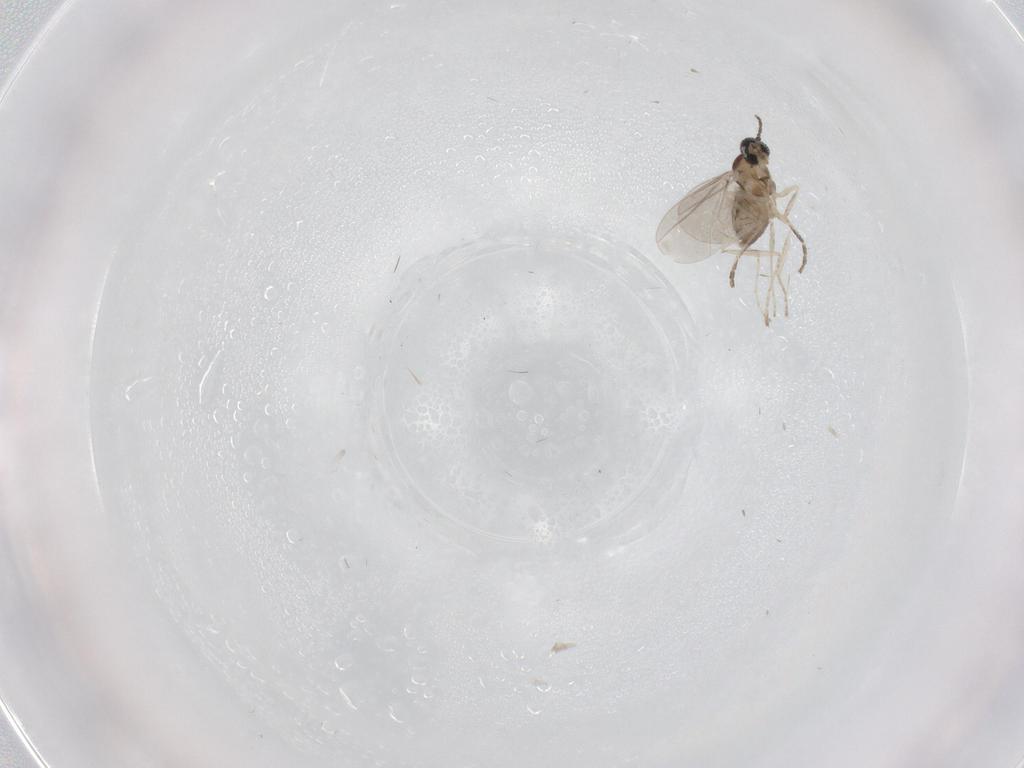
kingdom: Animalia
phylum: Arthropoda
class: Insecta
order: Diptera
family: Cecidomyiidae
